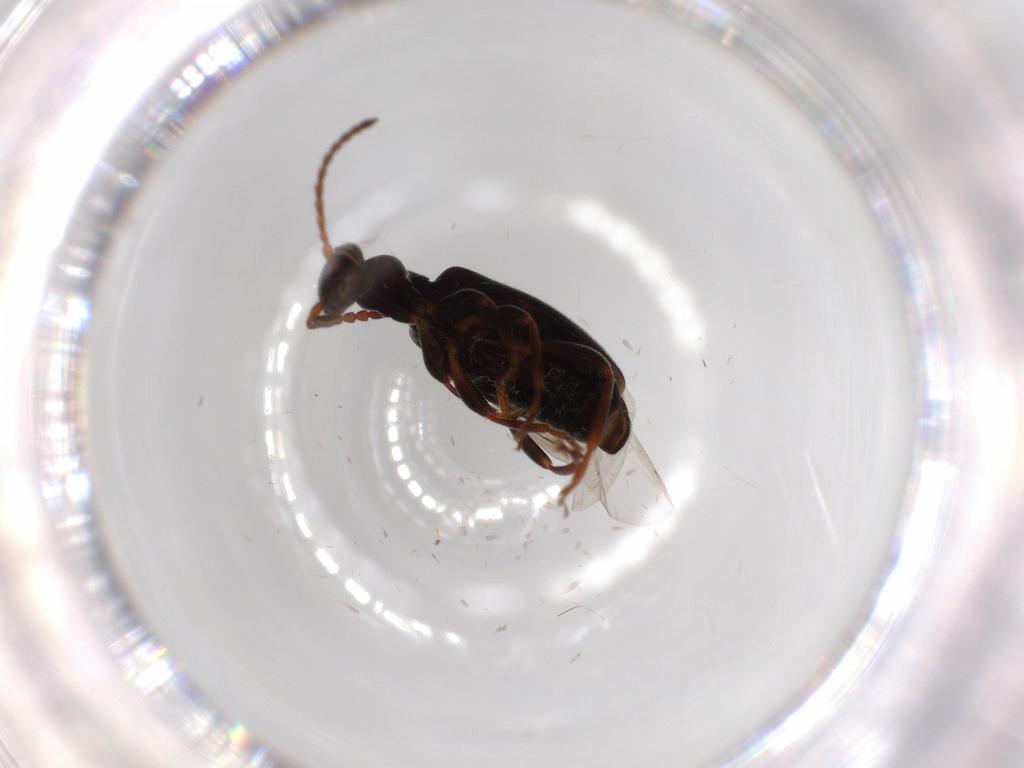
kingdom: Animalia
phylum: Arthropoda
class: Insecta
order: Coleoptera
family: Anthicidae
